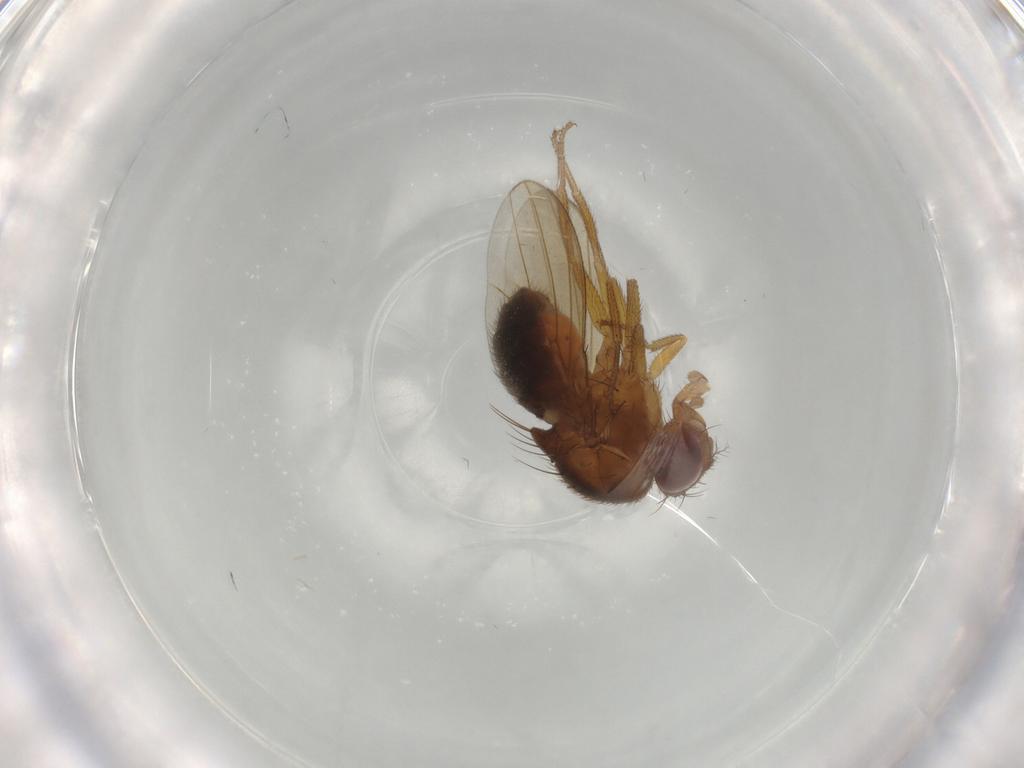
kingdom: Animalia
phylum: Arthropoda
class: Insecta
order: Diptera
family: Drosophilidae
